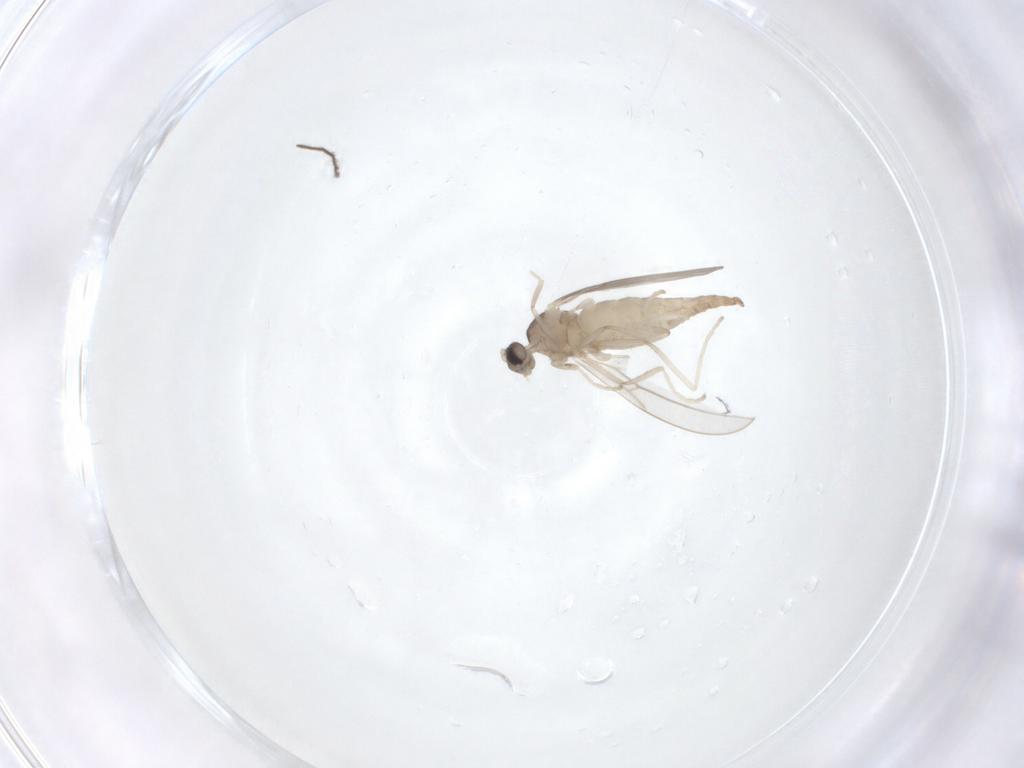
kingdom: Animalia
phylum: Arthropoda
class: Insecta
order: Diptera
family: Cecidomyiidae
